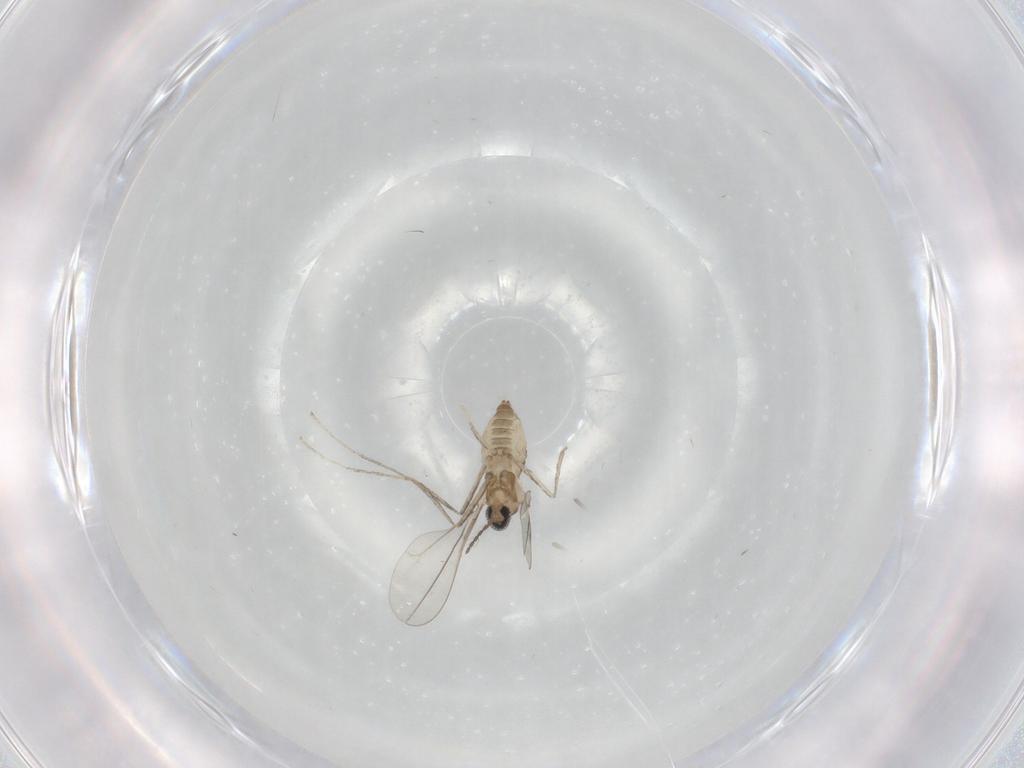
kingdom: Animalia
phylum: Arthropoda
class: Insecta
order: Diptera
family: Cecidomyiidae
